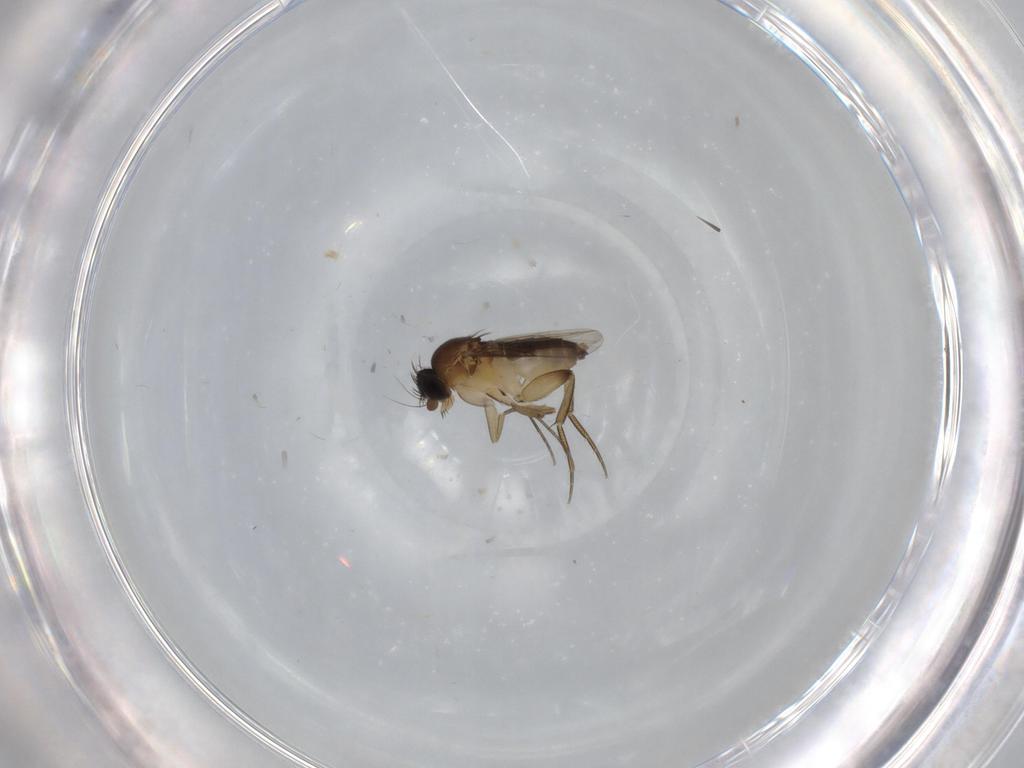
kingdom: Animalia
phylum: Arthropoda
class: Insecta
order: Diptera
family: Phoridae
